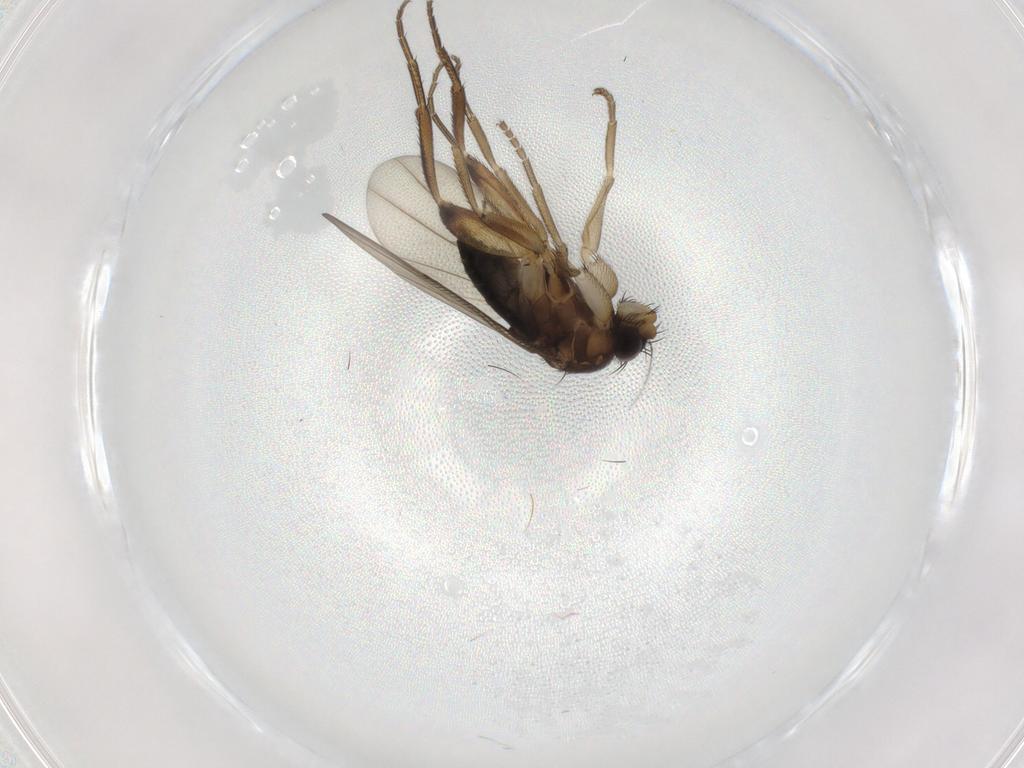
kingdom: Animalia
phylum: Arthropoda
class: Insecta
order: Diptera
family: Phoridae
